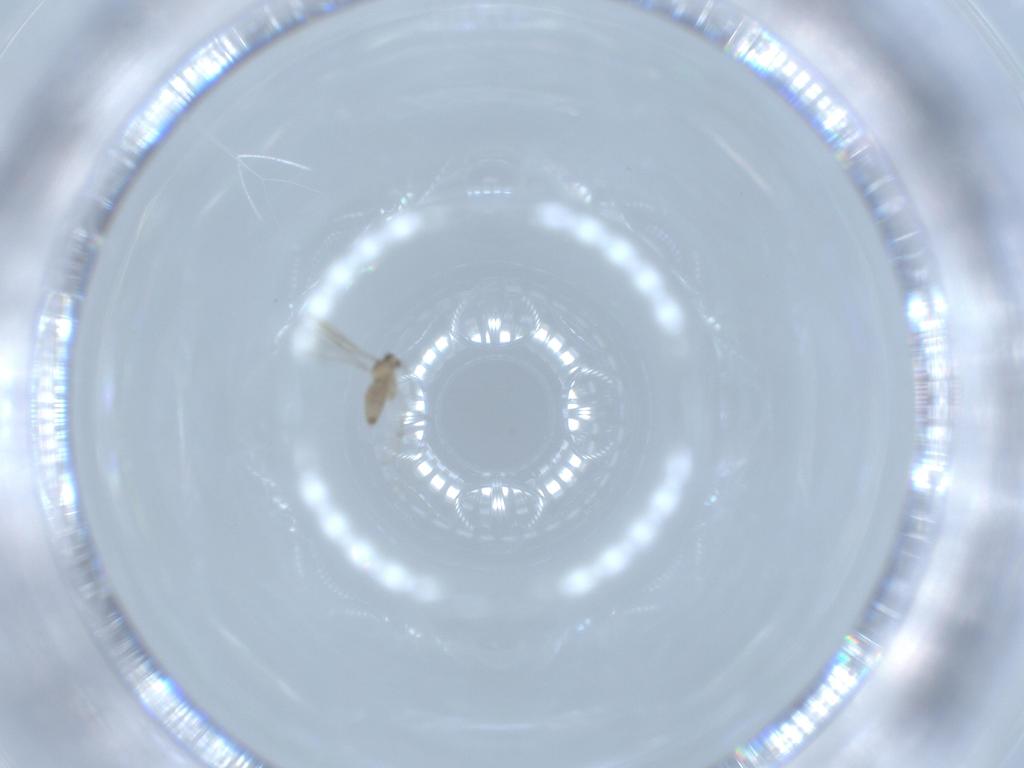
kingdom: Animalia
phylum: Arthropoda
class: Insecta
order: Diptera
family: Cecidomyiidae
